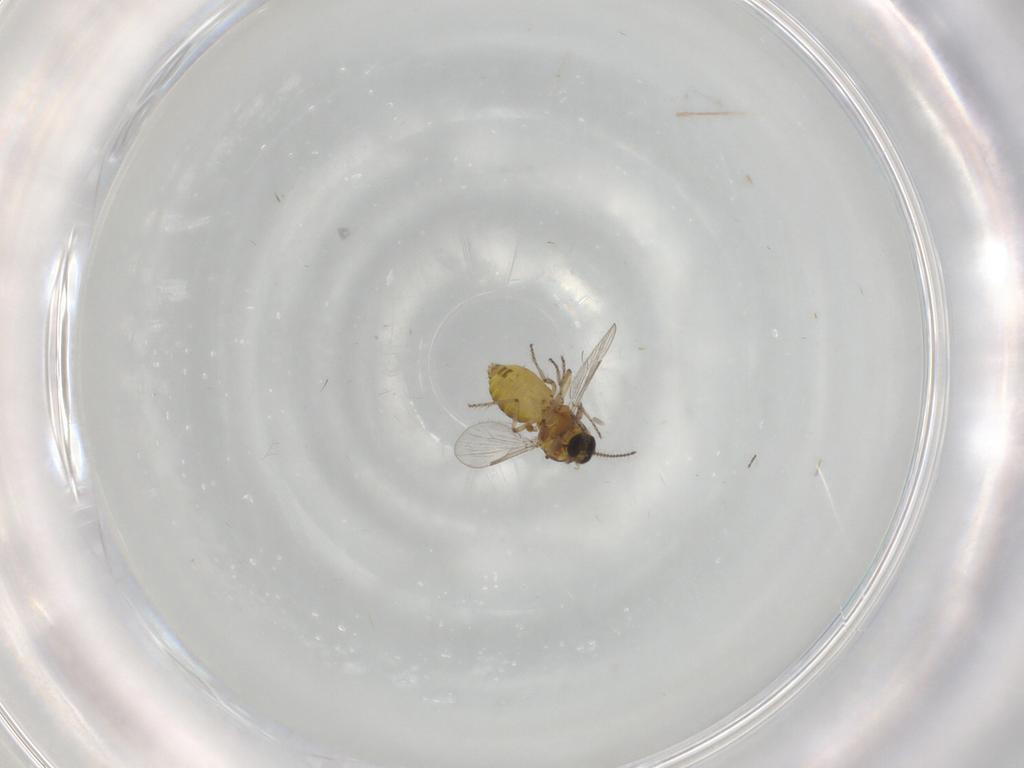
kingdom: Animalia
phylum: Arthropoda
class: Insecta
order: Diptera
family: Ceratopogonidae
